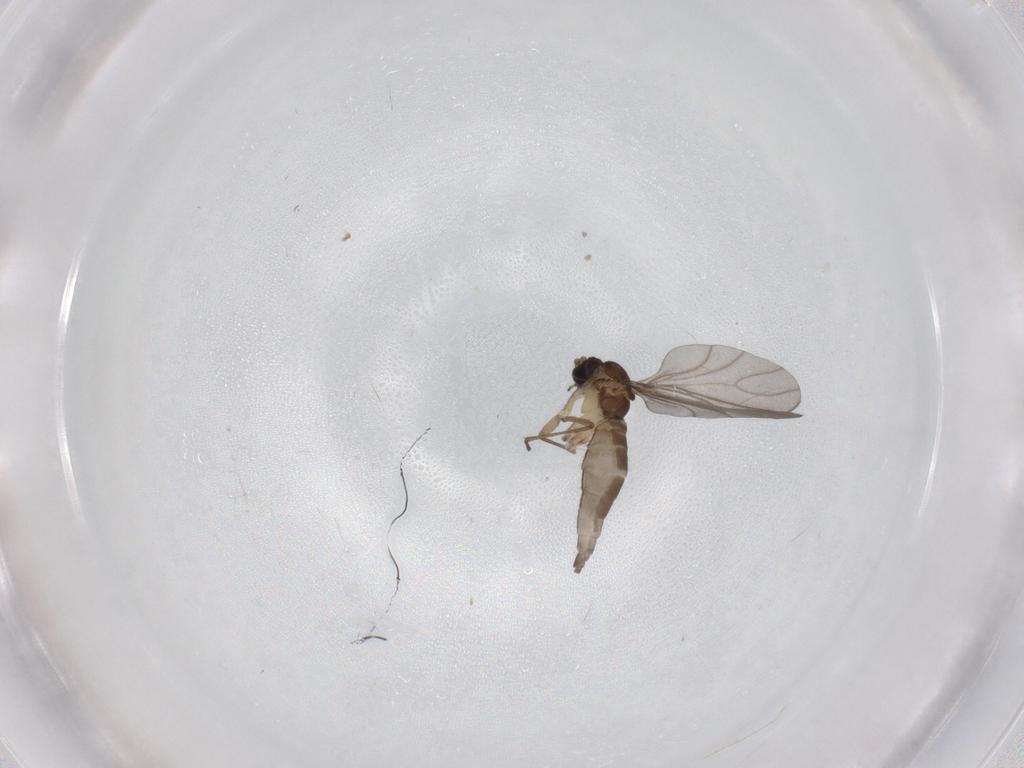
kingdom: Animalia
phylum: Arthropoda
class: Insecta
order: Diptera
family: Sciaridae
